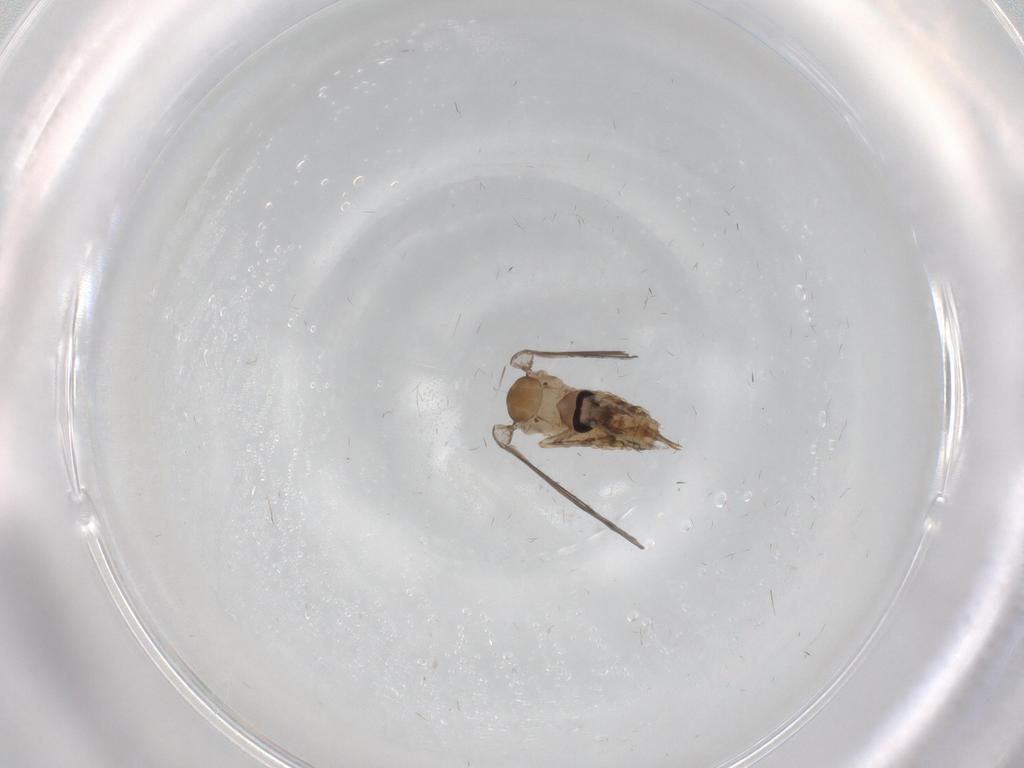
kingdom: Animalia
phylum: Arthropoda
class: Insecta
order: Diptera
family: Psychodidae
